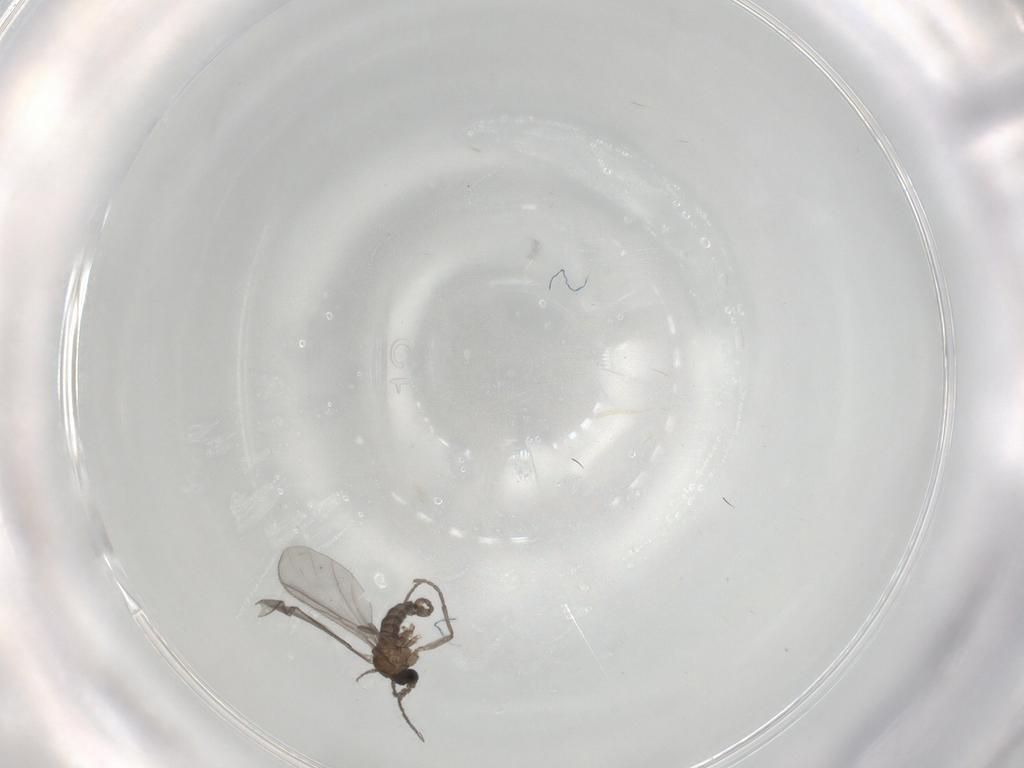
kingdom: Animalia
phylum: Arthropoda
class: Insecta
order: Diptera
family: Sciaridae
